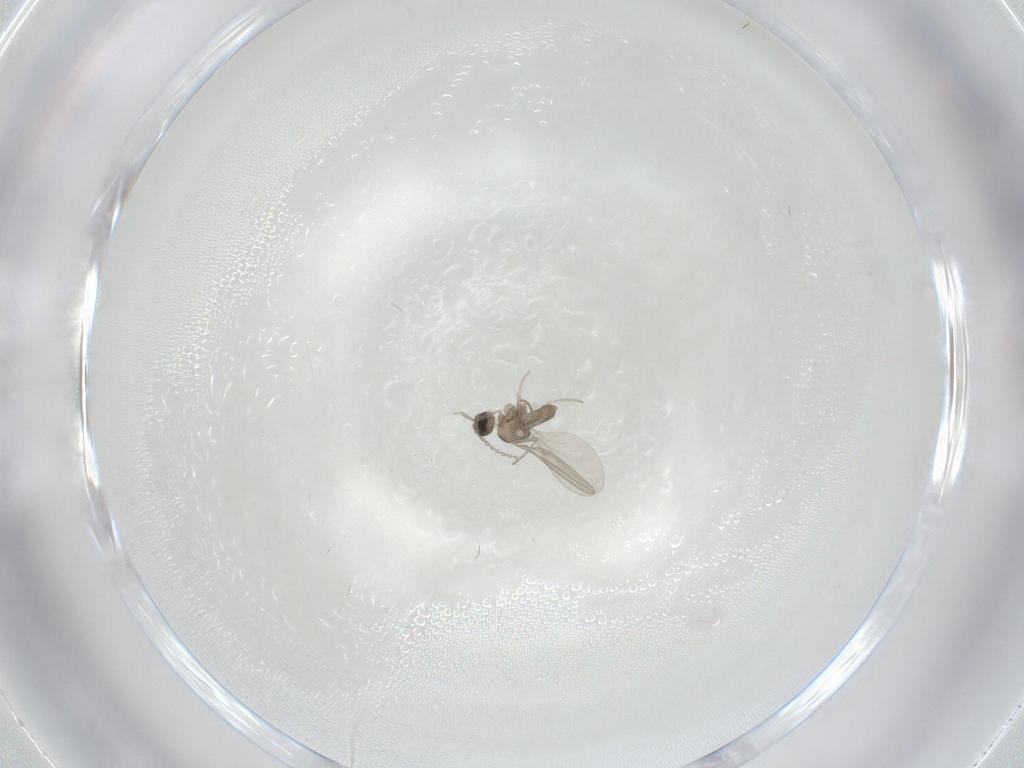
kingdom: Animalia
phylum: Arthropoda
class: Insecta
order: Diptera
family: Cecidomyiidae
